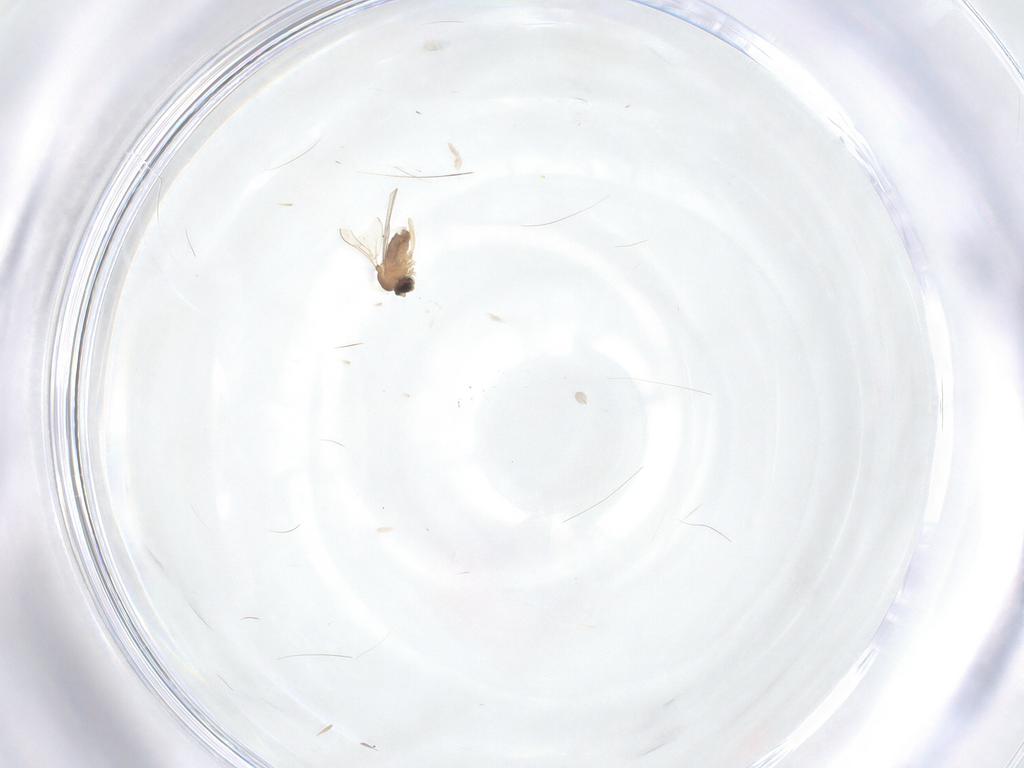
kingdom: Animalia
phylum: Arthropoda
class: Insecta
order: Diptera
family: Cecidomyiidae
